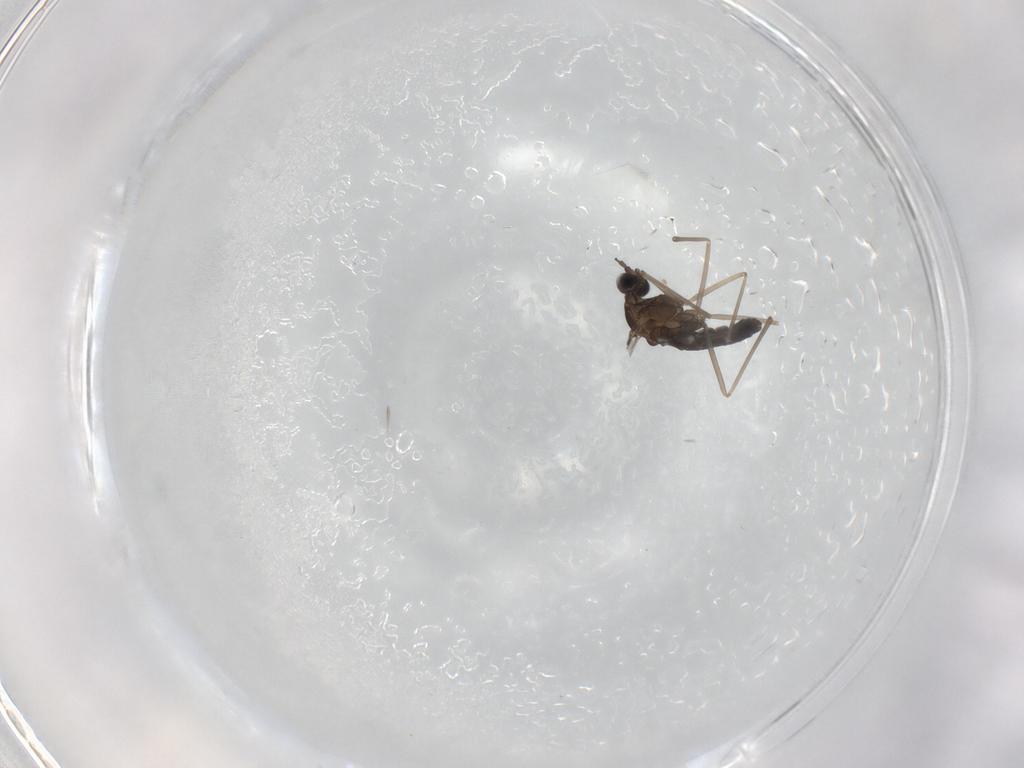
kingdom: Animalia
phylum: Arthropoda
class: Insecta
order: Diptera
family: Cecidomyiidae
